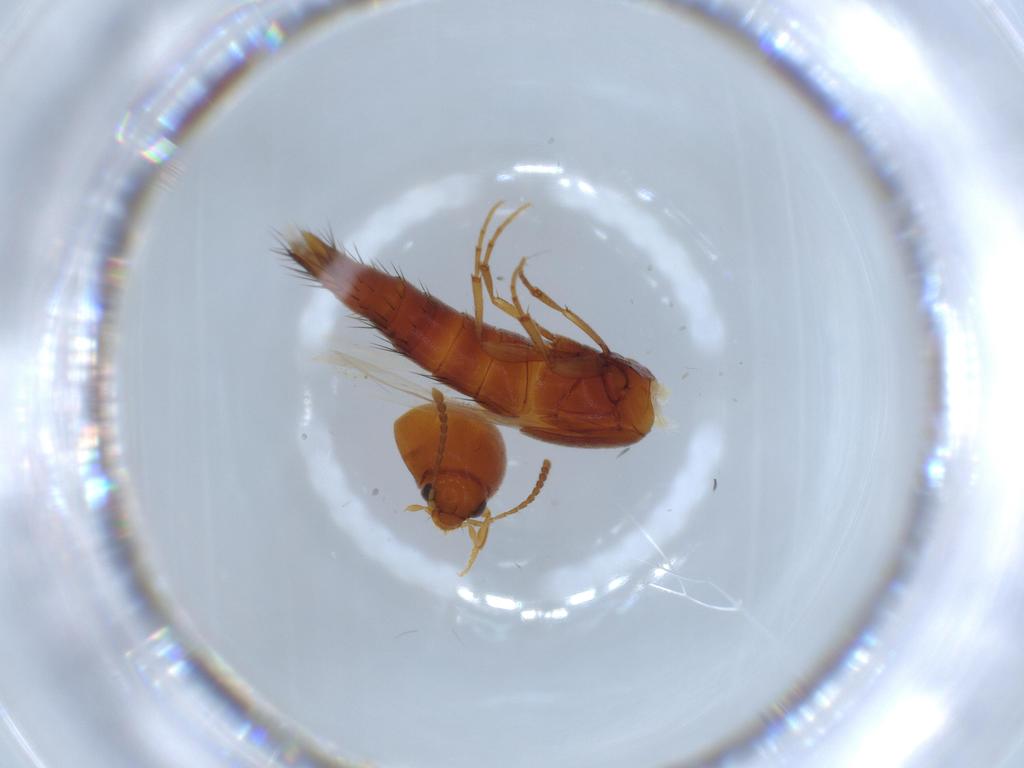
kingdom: Animalia
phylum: Arthropoda
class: Insecta
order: Coleoptera
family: Staphylinidae
